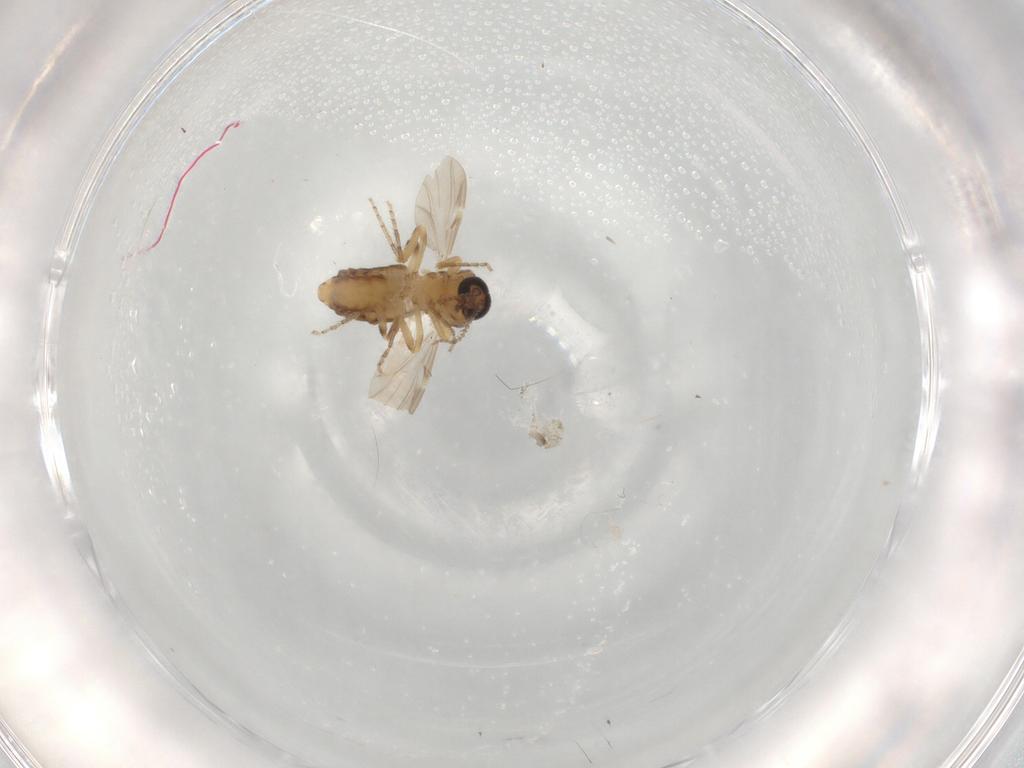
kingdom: Animalia
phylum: Arthropoda
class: Insecta
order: Diptera
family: Ceratopogonidae
